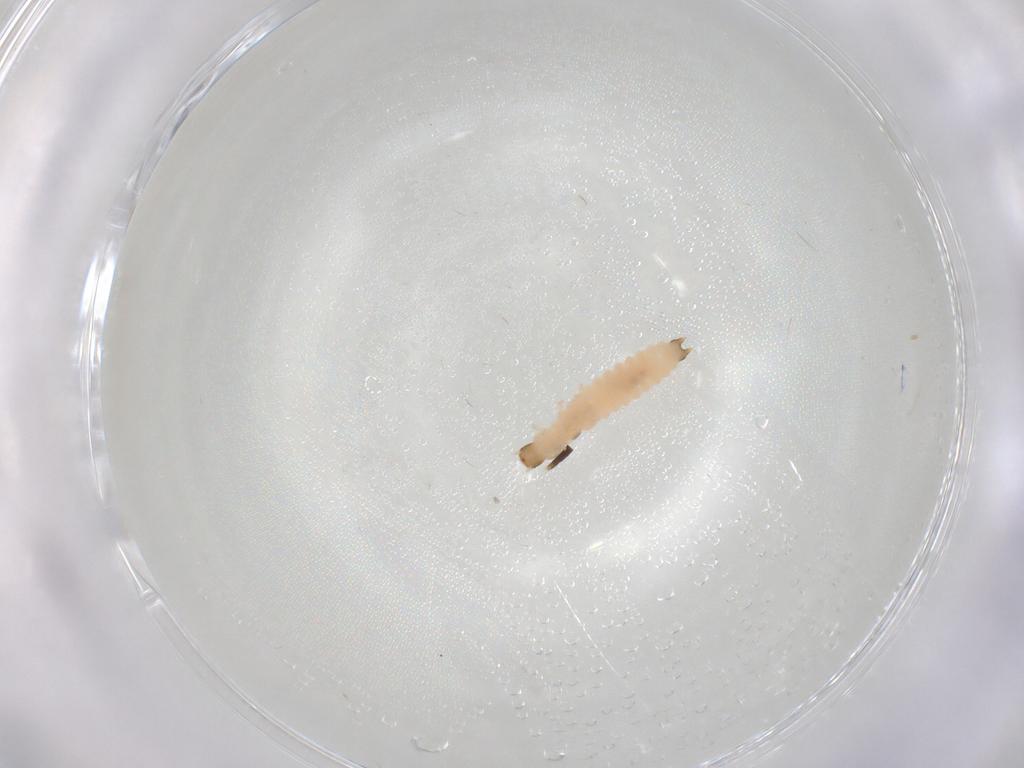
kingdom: Animalia
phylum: Arthropoda
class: Insecta
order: Coleoptera
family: Melyridae
